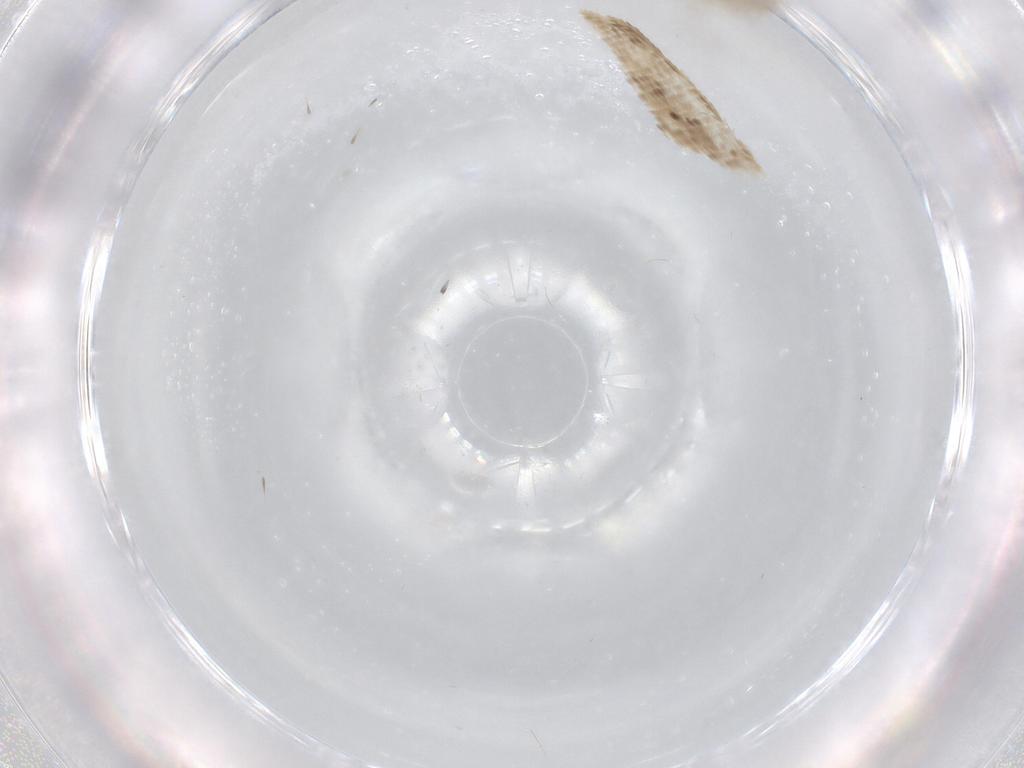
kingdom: Animalia
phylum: Arthropoda
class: Insecta
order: Diptera
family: Chironomidae
